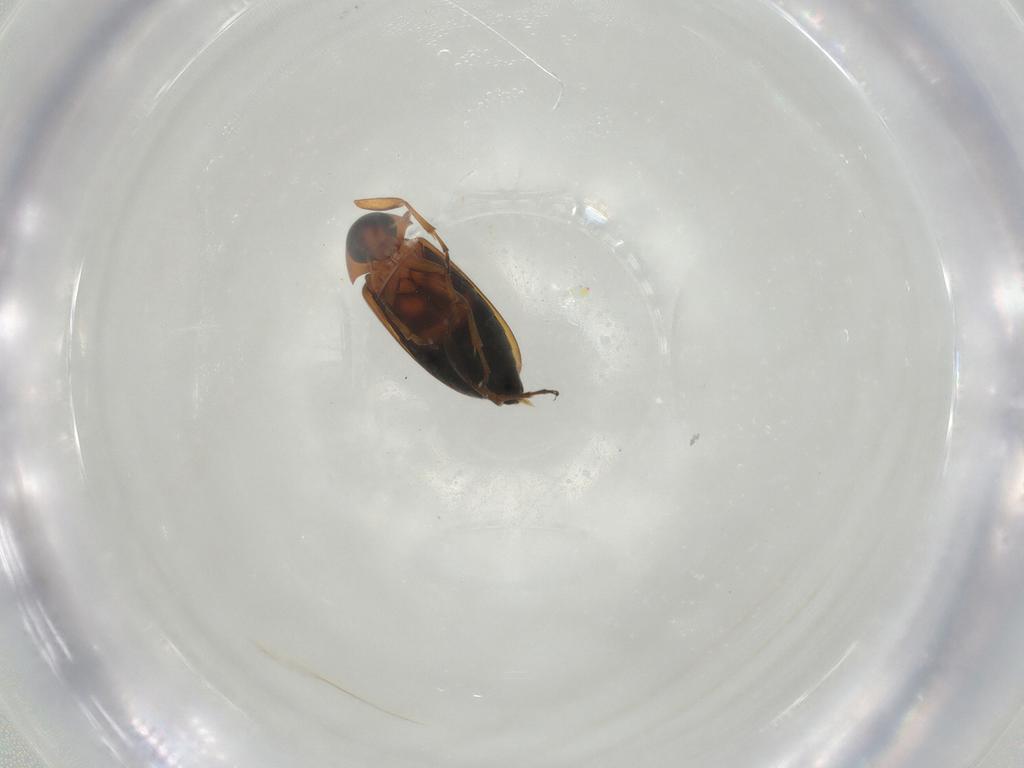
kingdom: Animalia
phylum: Arthropoda
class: Insecta
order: Coleoptera
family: Scraptiidae
